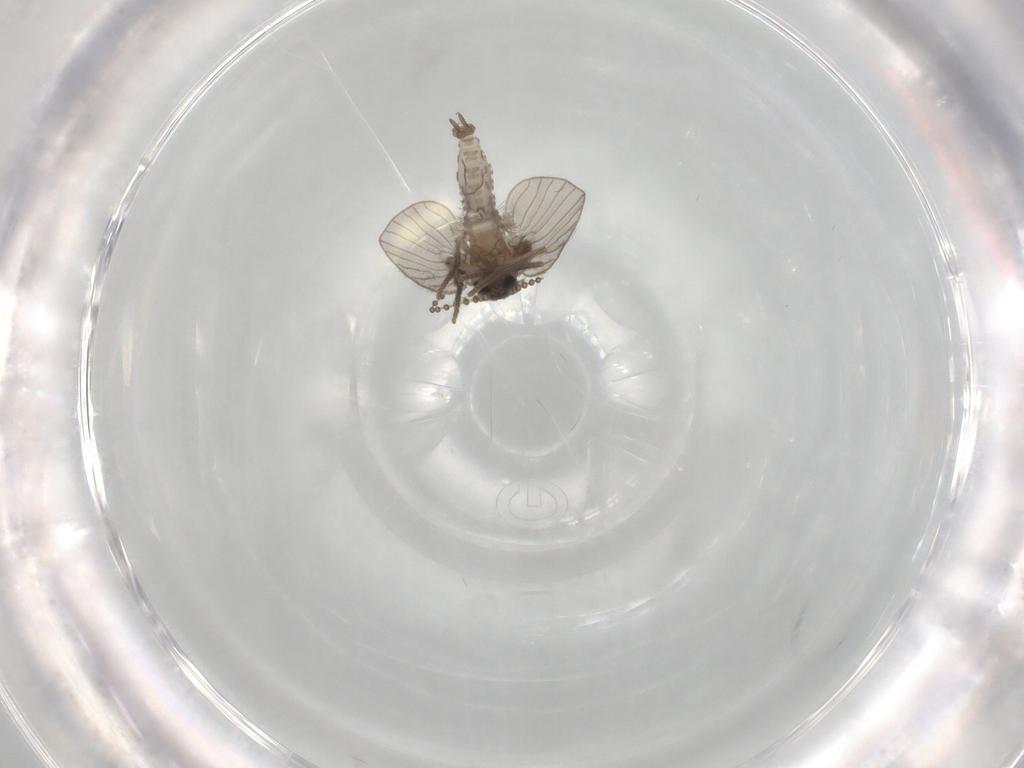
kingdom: Animalia
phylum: Arthropoda
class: Insecta
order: Diptera
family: Psychodidae
